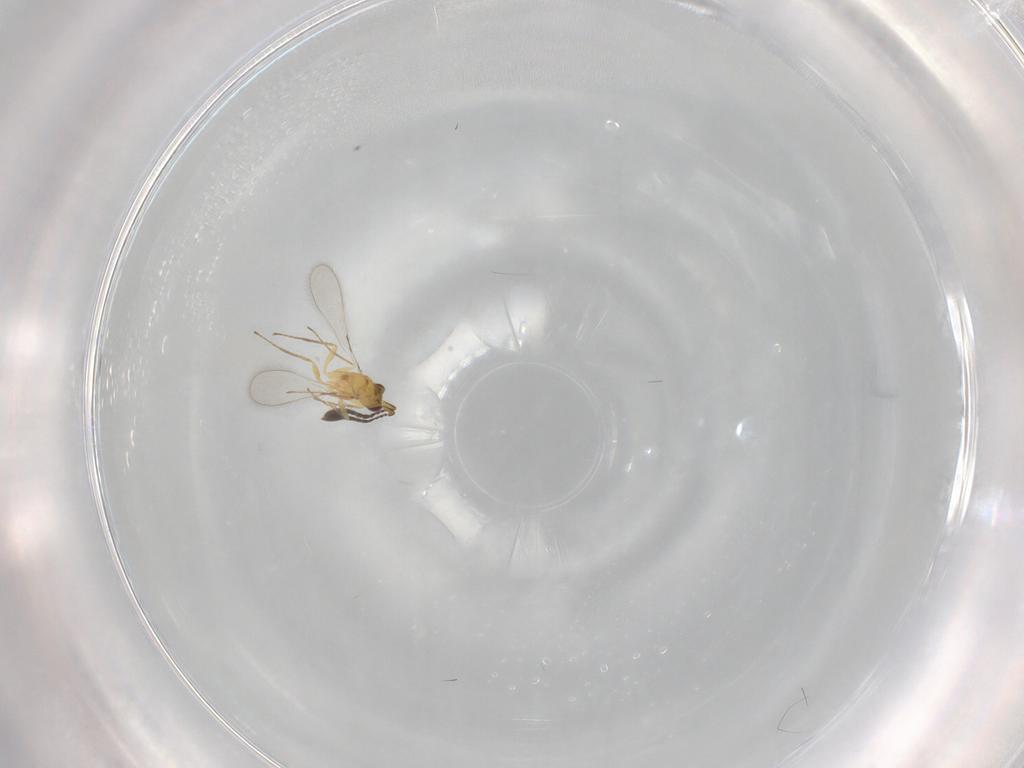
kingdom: Animalia
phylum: Arthropoda
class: Insecta
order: Hymenoptera
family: Mymaridae
